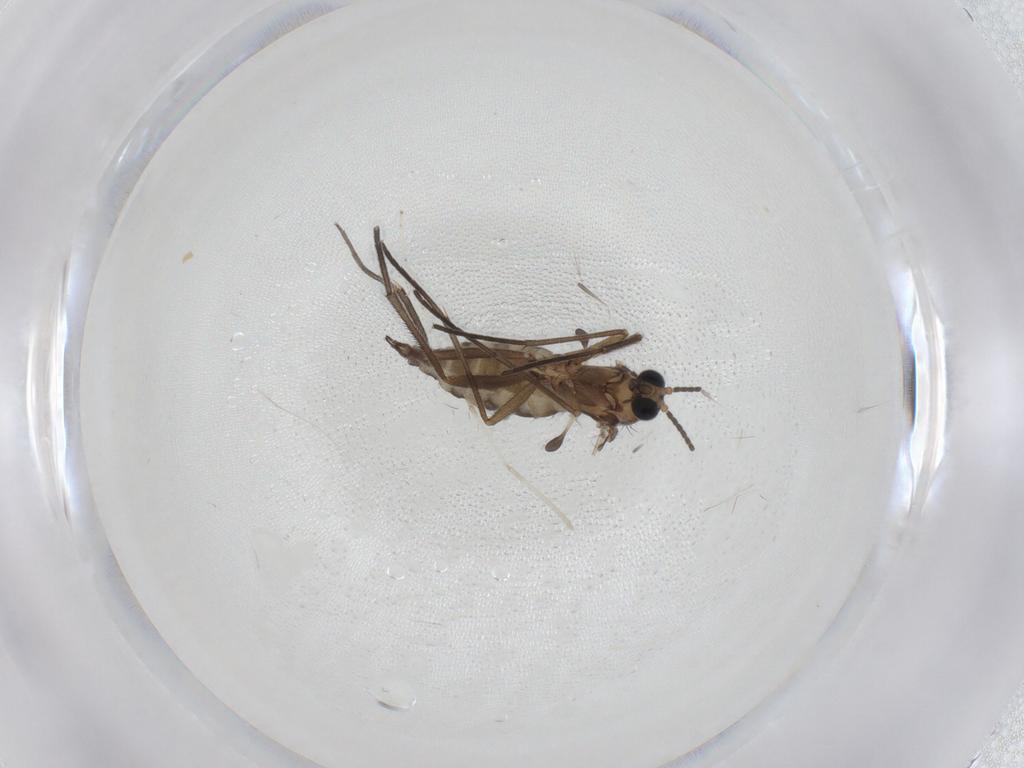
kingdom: Animalia
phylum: Arthropoda
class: Insecta
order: Diptera
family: Sciaridae
